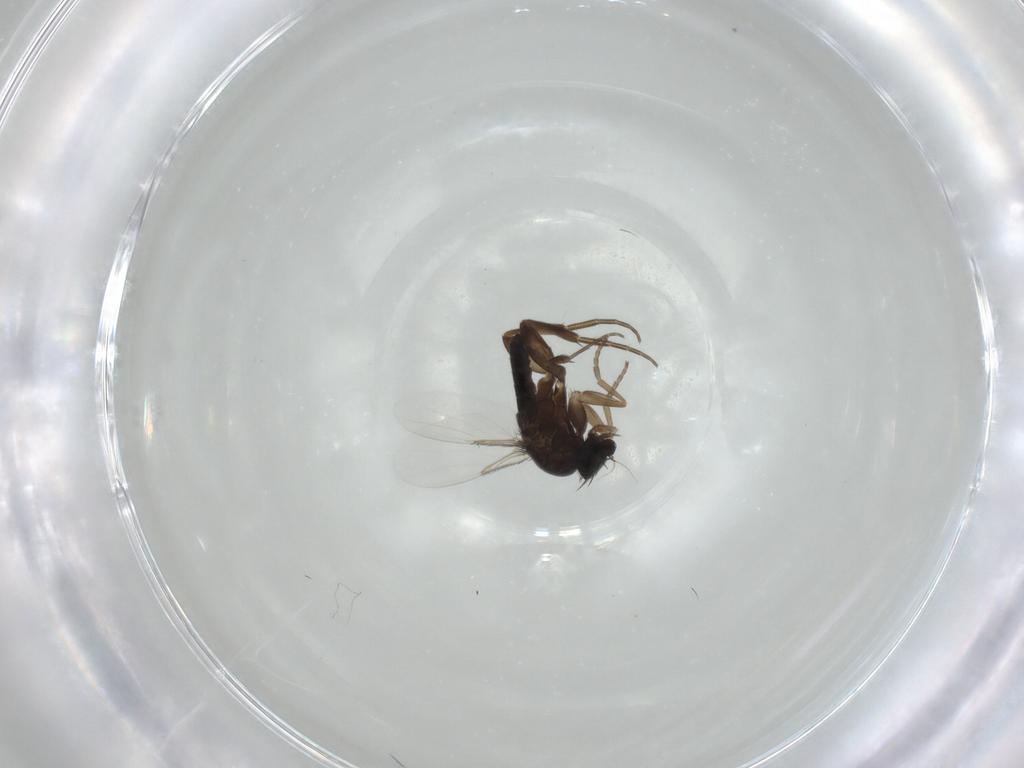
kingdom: Animalia
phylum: Arthropoda
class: Insecta
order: Diptera
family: Phoridae
